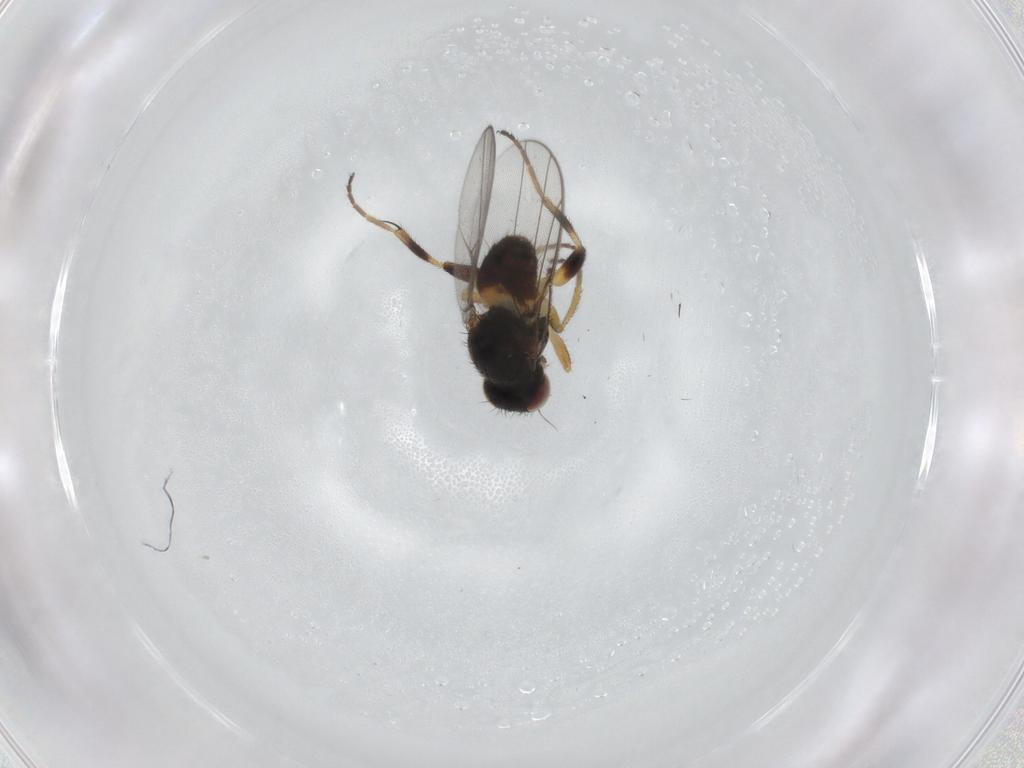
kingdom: Animalia
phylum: Arthropoda
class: Insecta
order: Diptera
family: Chloropidae
